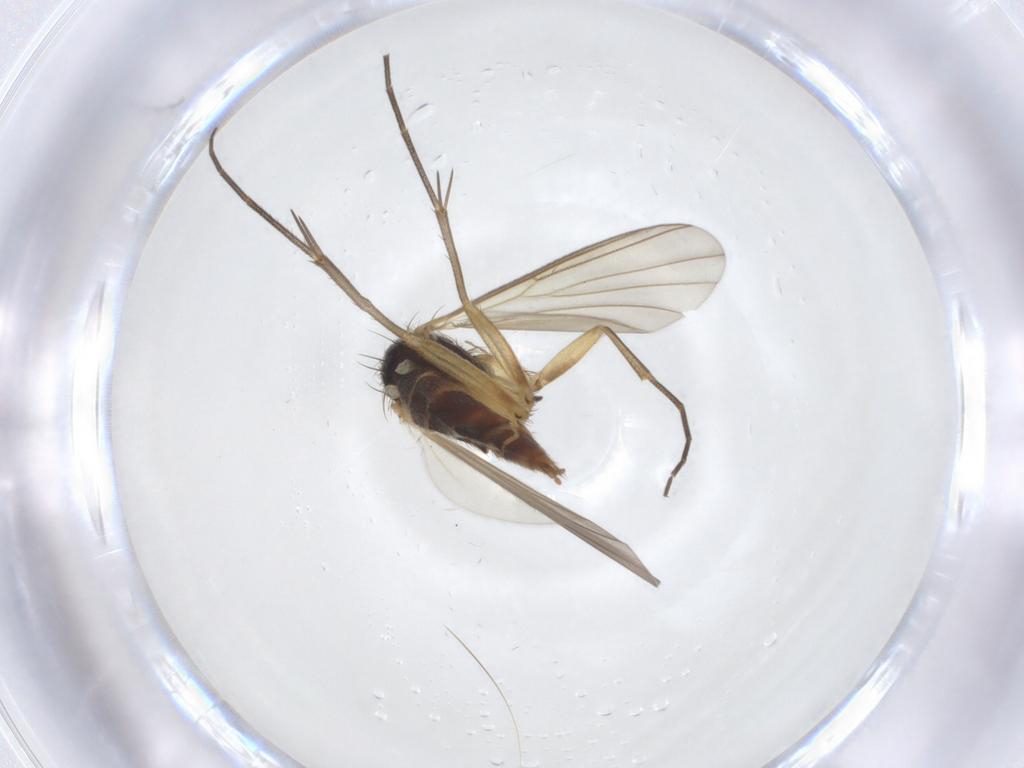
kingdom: Animalia
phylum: Arthropoda
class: Insecta
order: Diptera
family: Mycetophilidae
